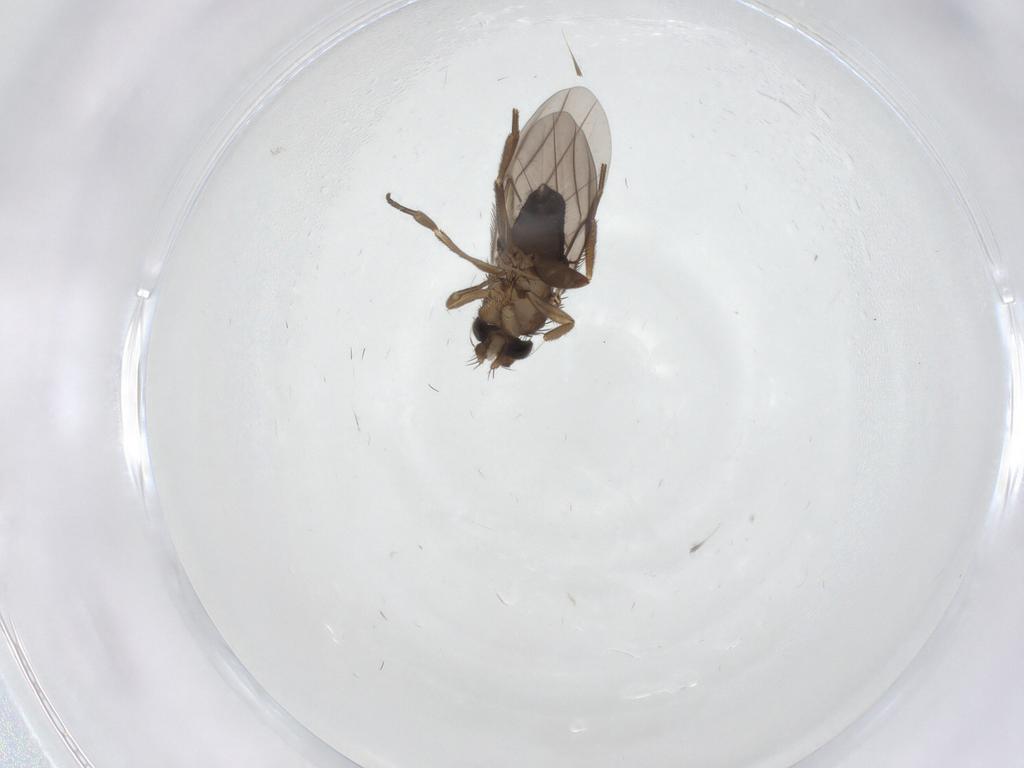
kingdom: Animalia
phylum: Arthropoda
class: Insecta
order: Diptera
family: Phoridae
